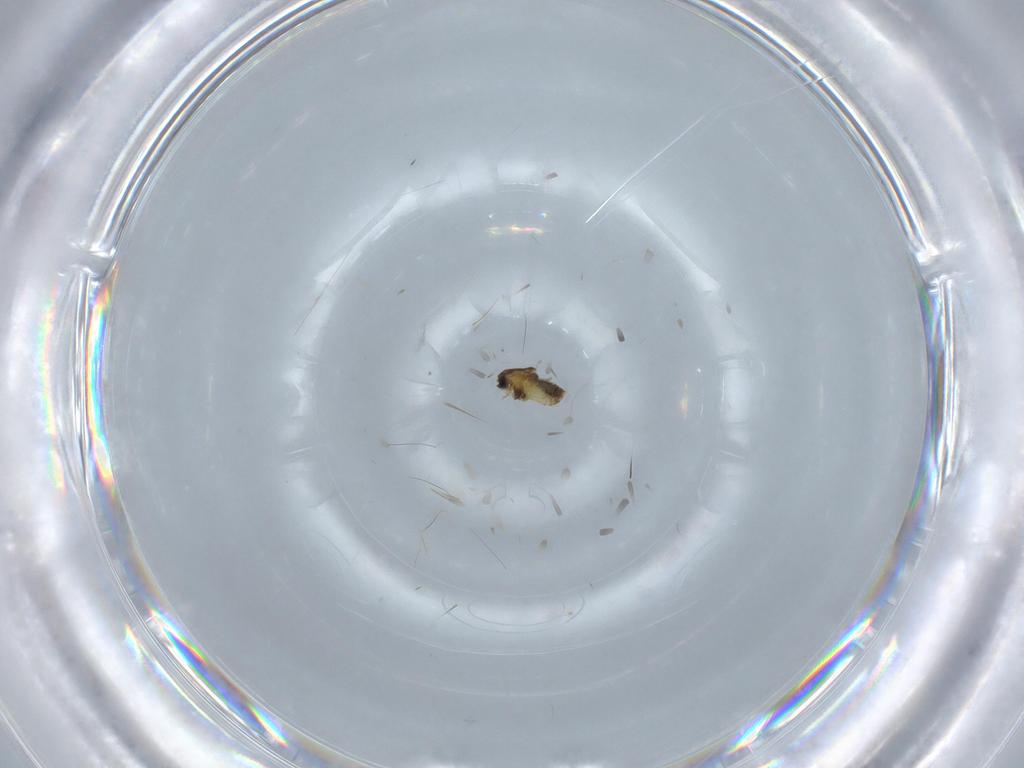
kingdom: Animalia
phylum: Arthropoda
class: Insecta
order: Diptera
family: Chironomidae
